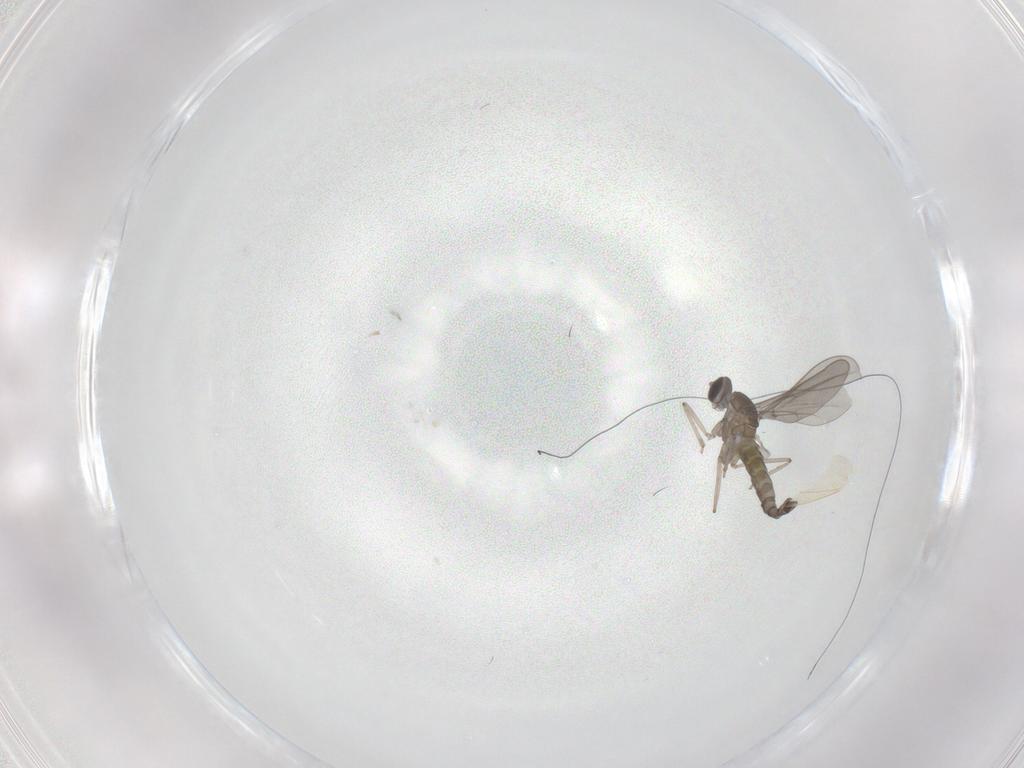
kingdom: Animalia
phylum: Arthropoda
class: Insecta
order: Diptera
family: Cecidomyiidae
